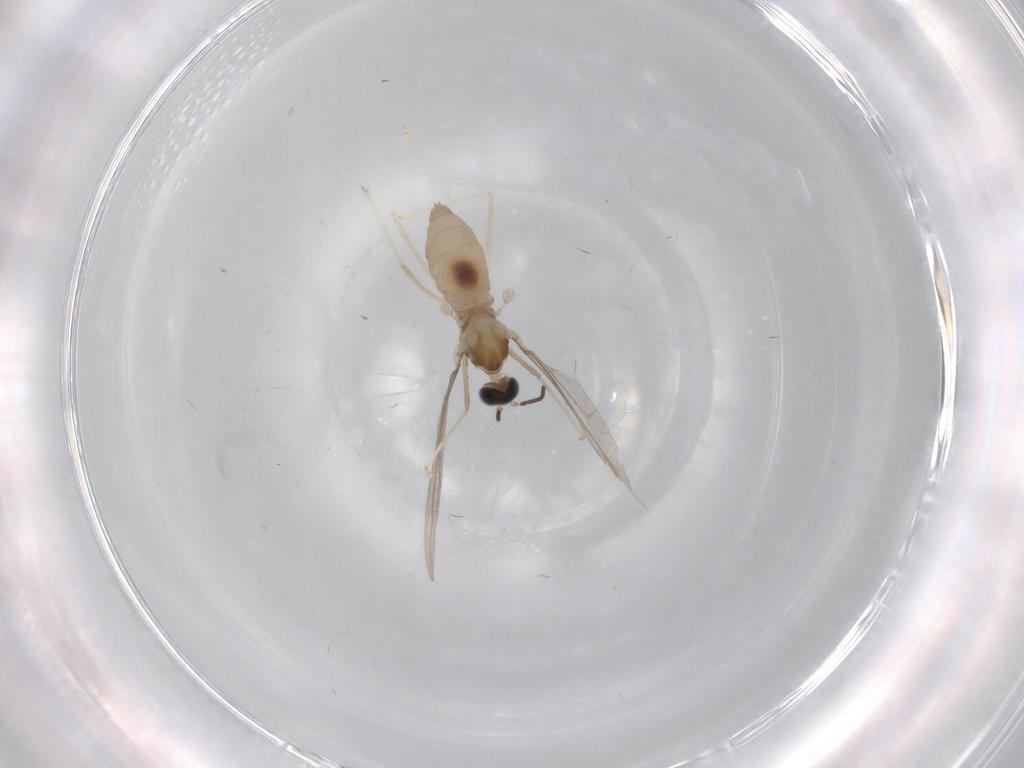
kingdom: Animalia
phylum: Arthropoda
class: Insecta
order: Diptera
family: Cecidomyiidae
